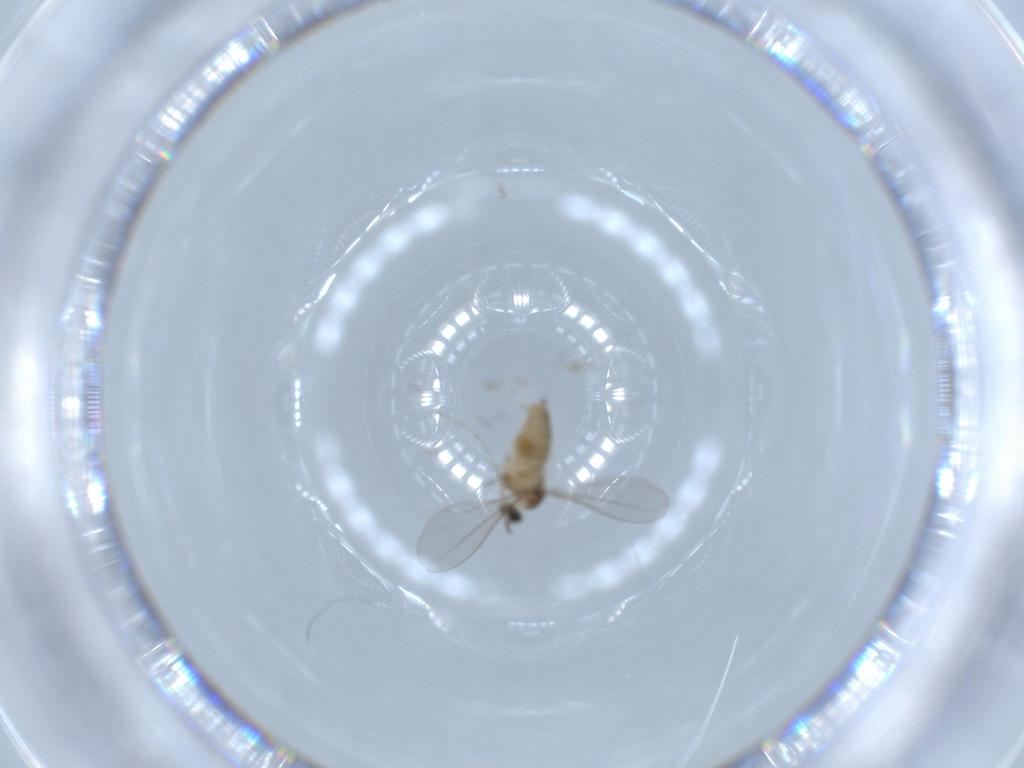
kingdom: Animalia
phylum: Arthropoda
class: Insecta
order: Diptera
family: Cecidomyiidae
